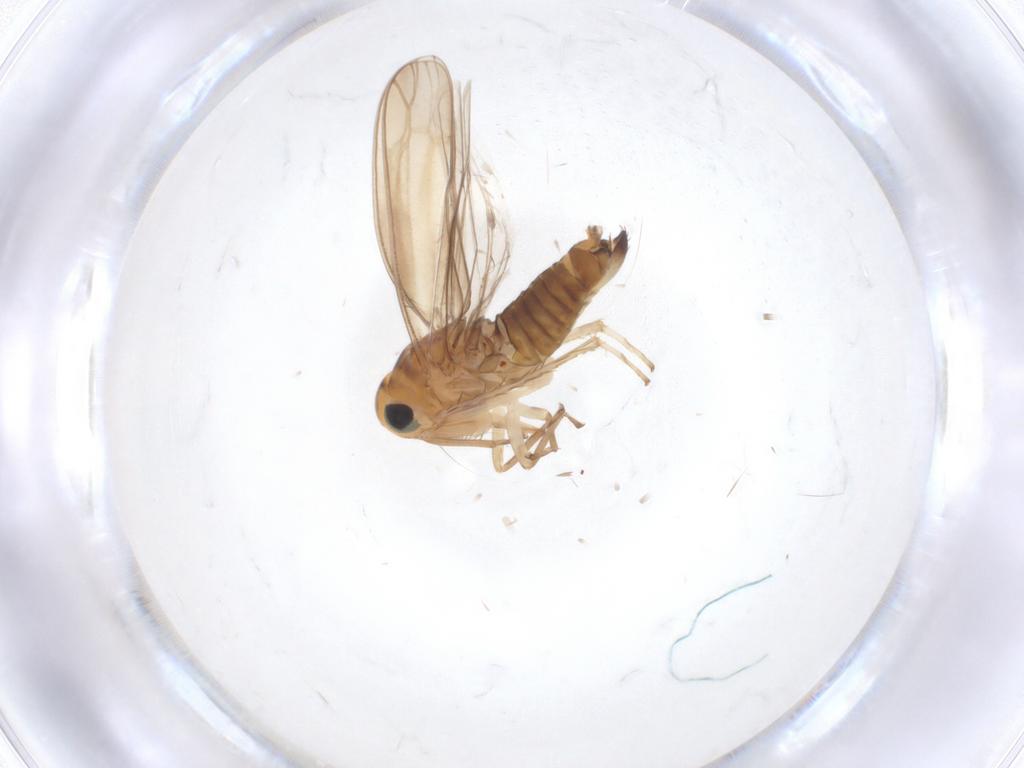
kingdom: Animalia
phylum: Arthropoda
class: Insecta
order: Hemiptera
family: Cicadellidae
